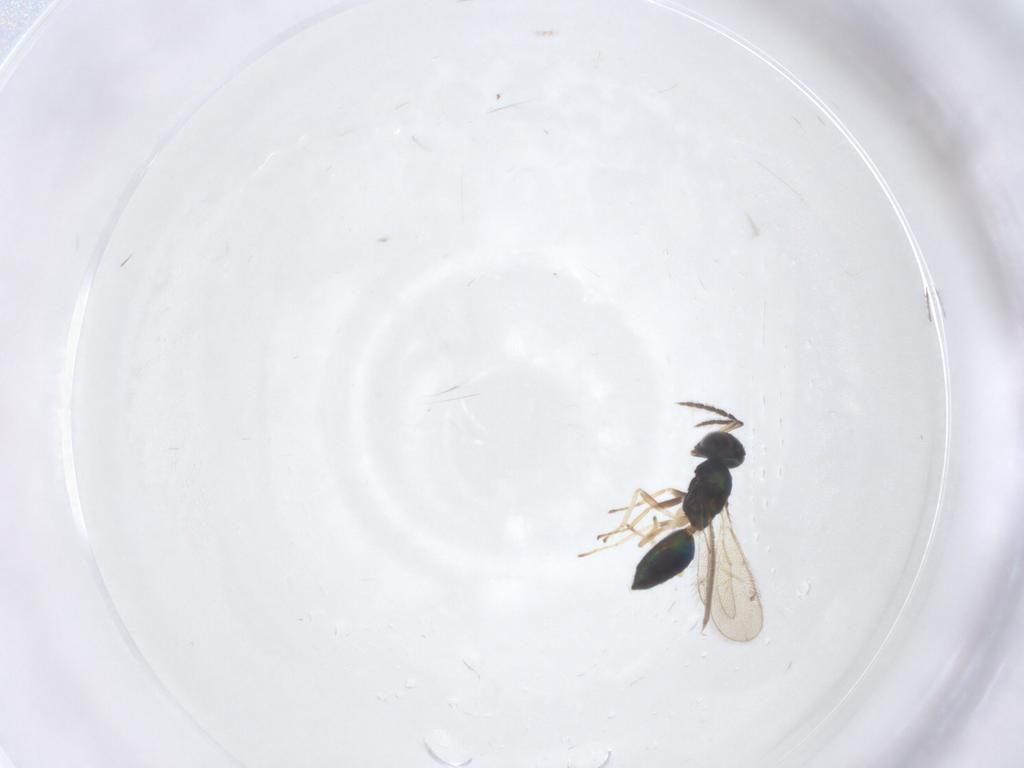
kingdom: Animalia
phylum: Arthropoda
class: Insecta
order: Hymenoptera
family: Eulophidae
